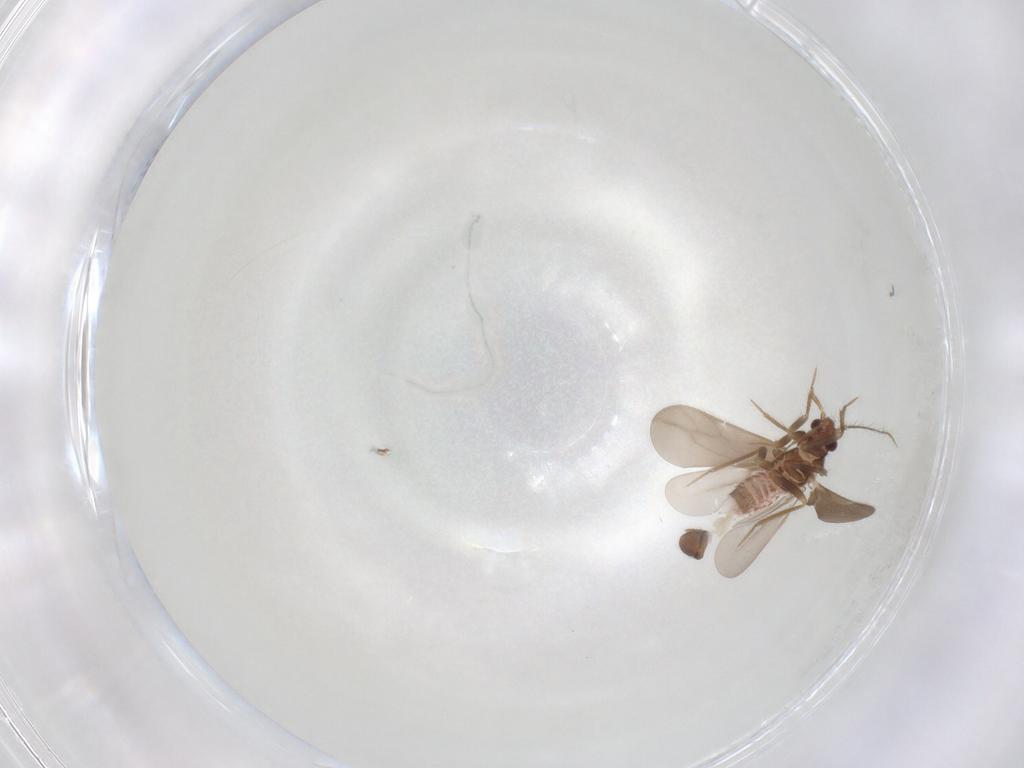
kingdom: Animalia
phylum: Arthropoda
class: Insecta
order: Hemiptera
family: Ceratocombidae
